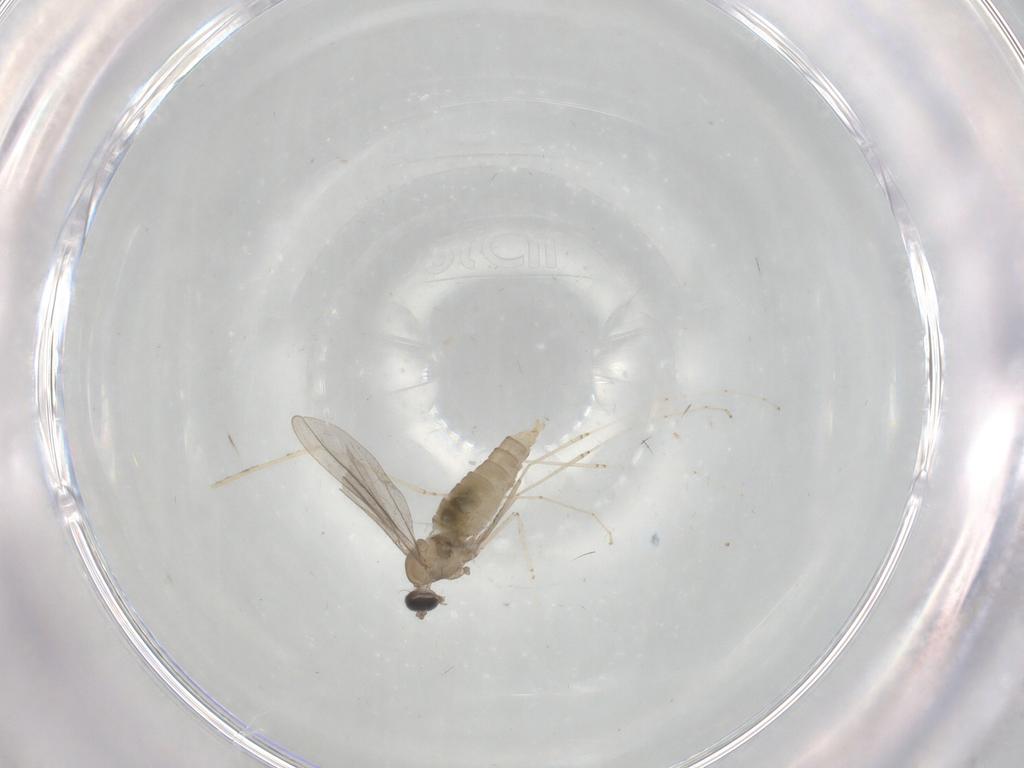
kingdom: Animalia
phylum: Arthropoda
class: Insecta
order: Diptera
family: Cecidomyiidae
